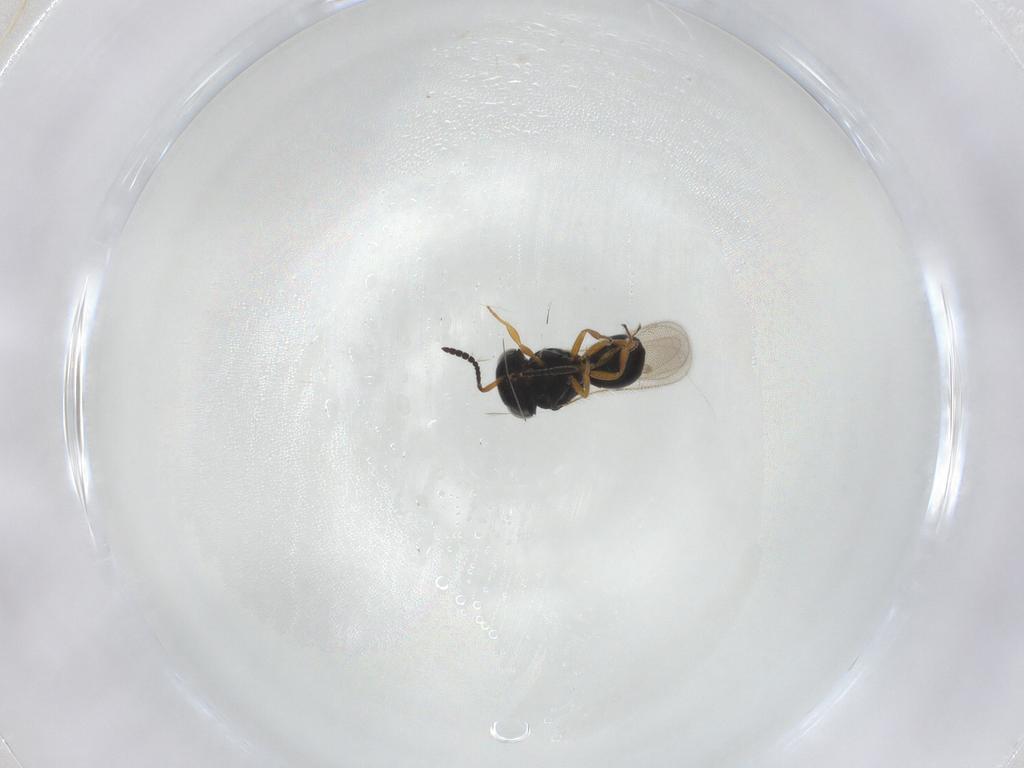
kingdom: Animalia
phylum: Arthropoda
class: Insecta
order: Hymenoptera
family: Scelionidae
